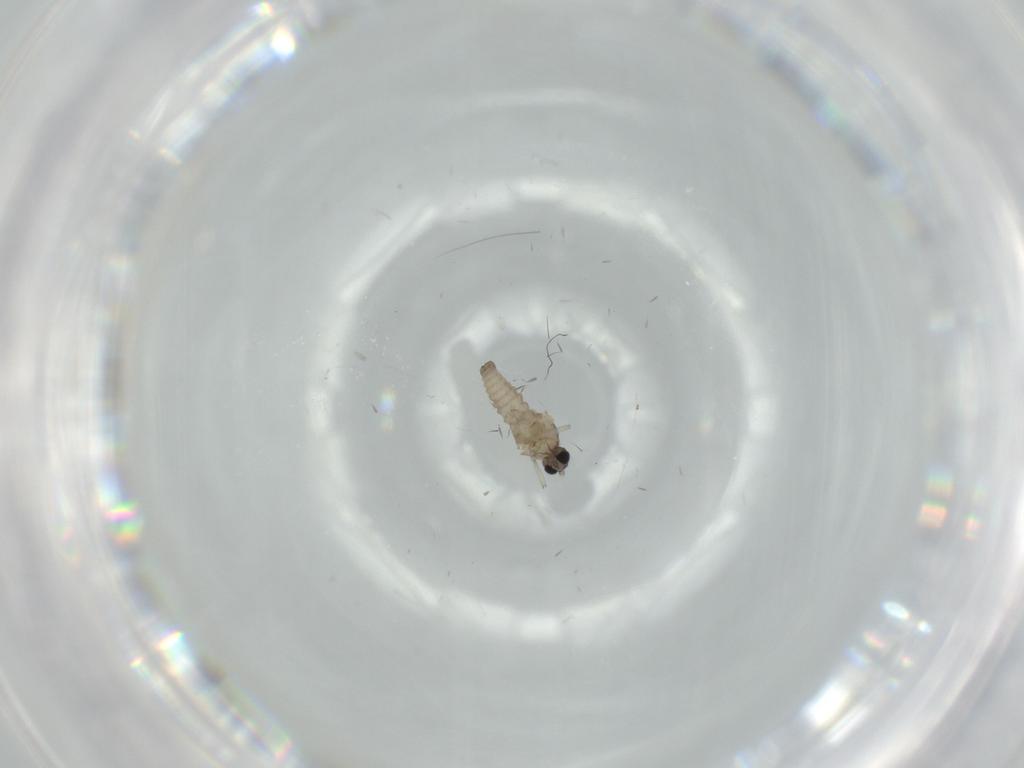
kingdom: Animalia
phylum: Arthropoda
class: Insecta
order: Diptera
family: Cecidomyiidae
